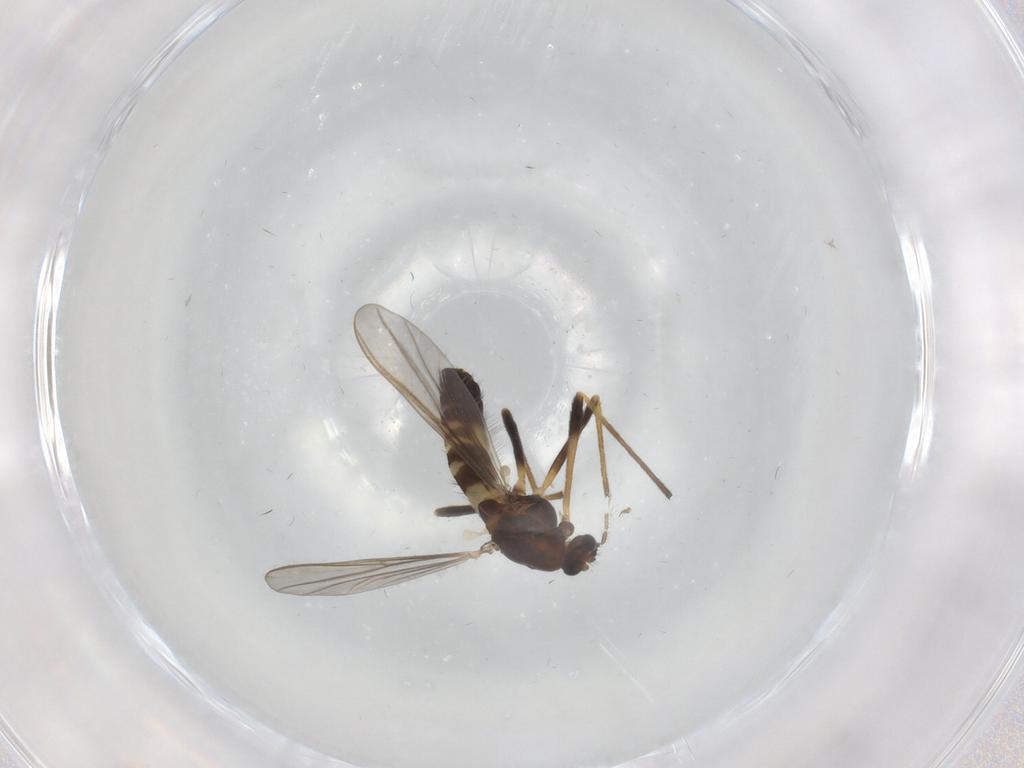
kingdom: Animalia
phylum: Arthropoda
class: Insecta
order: Diptera
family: Chironomidae
